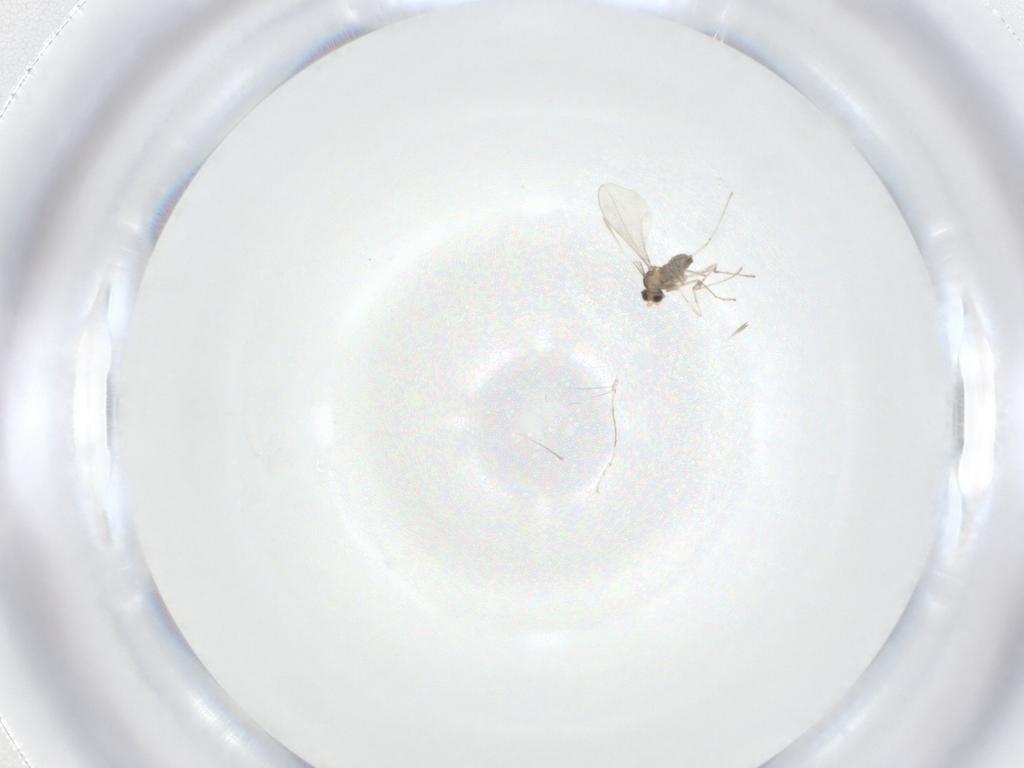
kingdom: Animalia
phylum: Arthropoda
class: Insecta
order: Diptera
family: Cecidomyiidae
